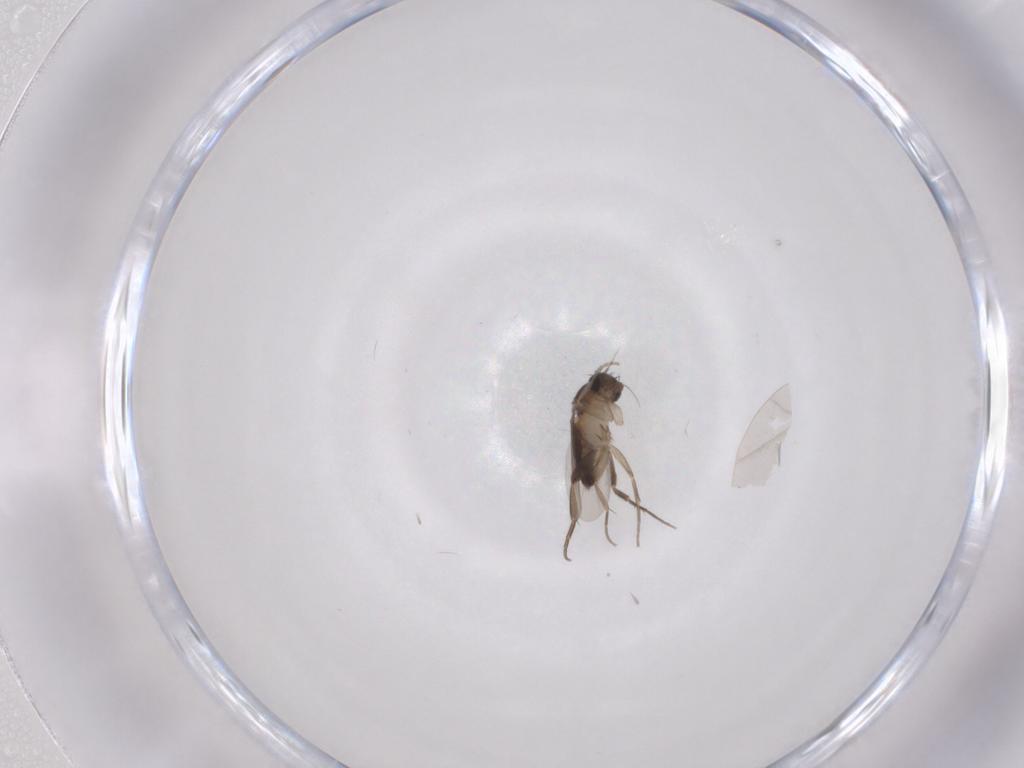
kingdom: Animalia
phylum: Arthropoda
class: Insecta
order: Diptera
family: Phoridae
